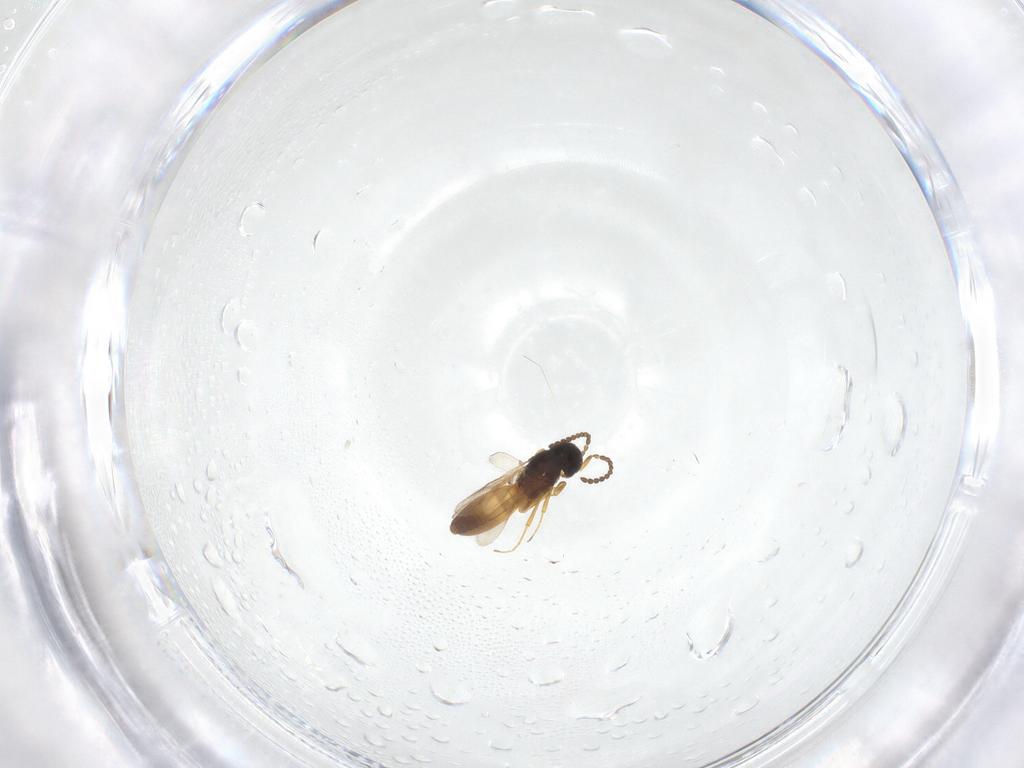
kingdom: Animalia
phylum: Arthropoda
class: Insecta
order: Hymenoptera
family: Scelionidae
